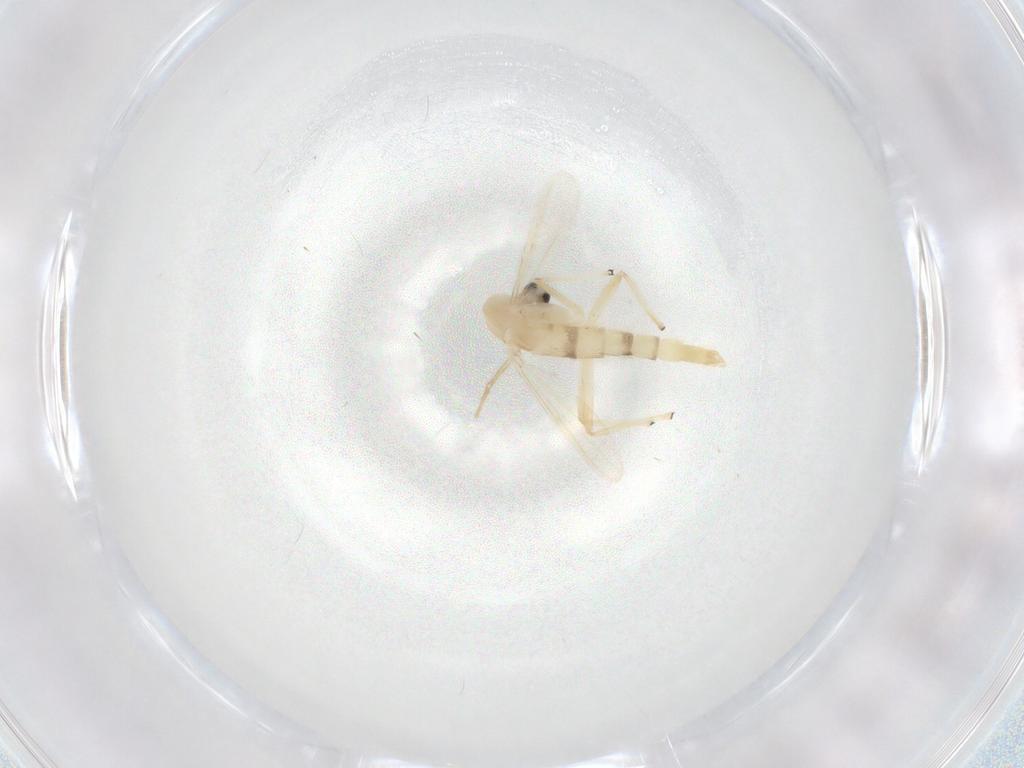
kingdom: Animalia
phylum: Arthropoda
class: Insecta
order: Diptera
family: Chironomidae
